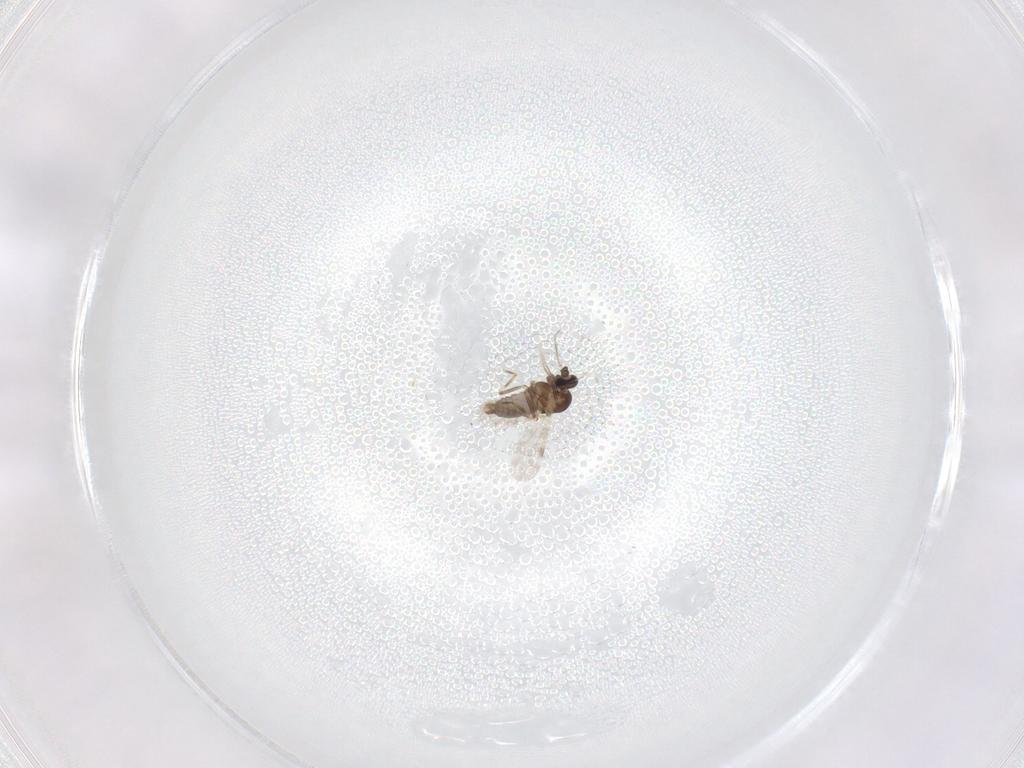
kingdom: Animalia
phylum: Arthropoda
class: Insecta
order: Diptera
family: Ceratopogonidae
